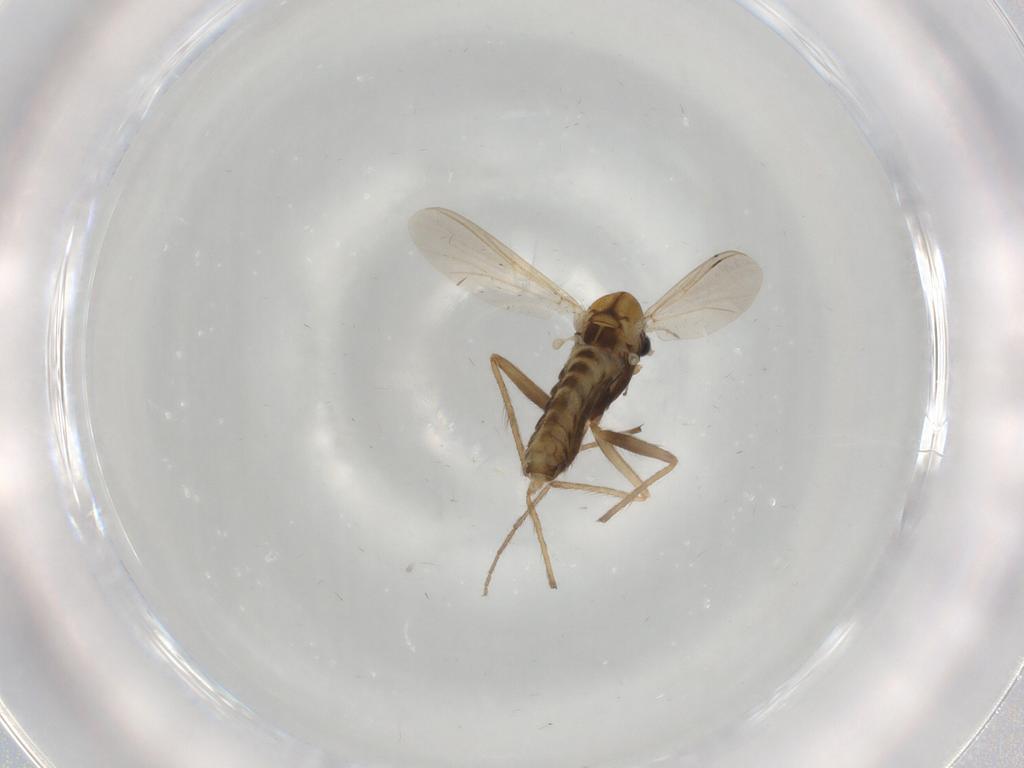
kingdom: Animalia
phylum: Arthropoda
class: Insecta
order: Diptera
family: Chironomidae
